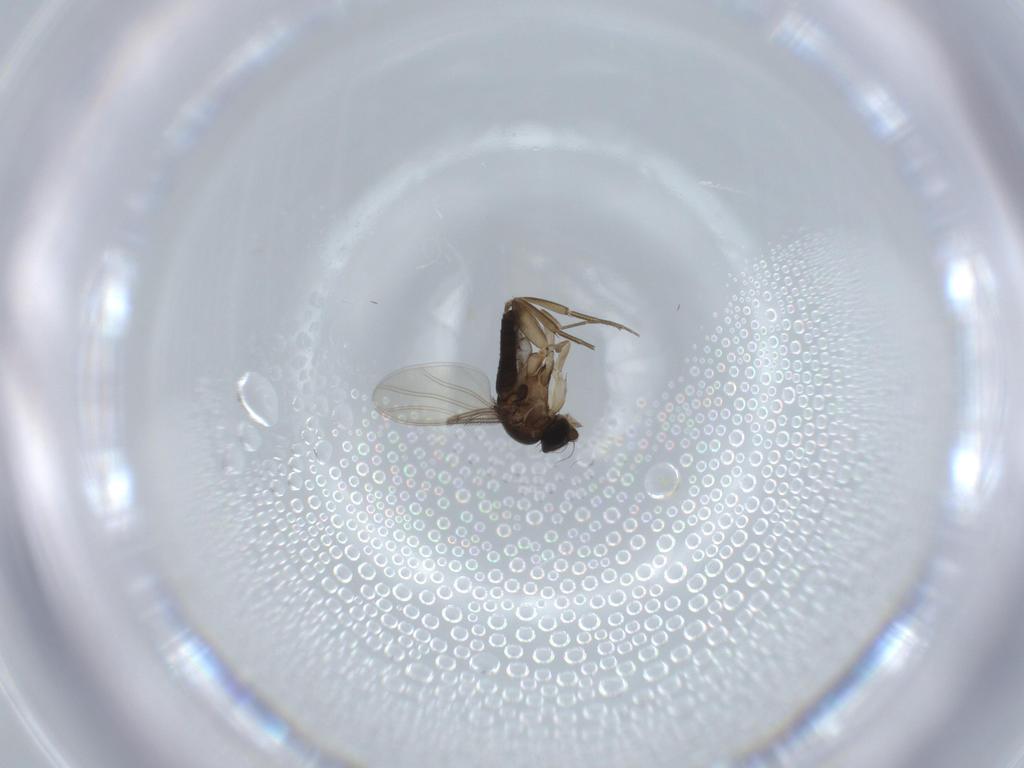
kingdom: Animalia
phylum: Arthropoda
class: Insecta
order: Diptera
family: Phoridae
